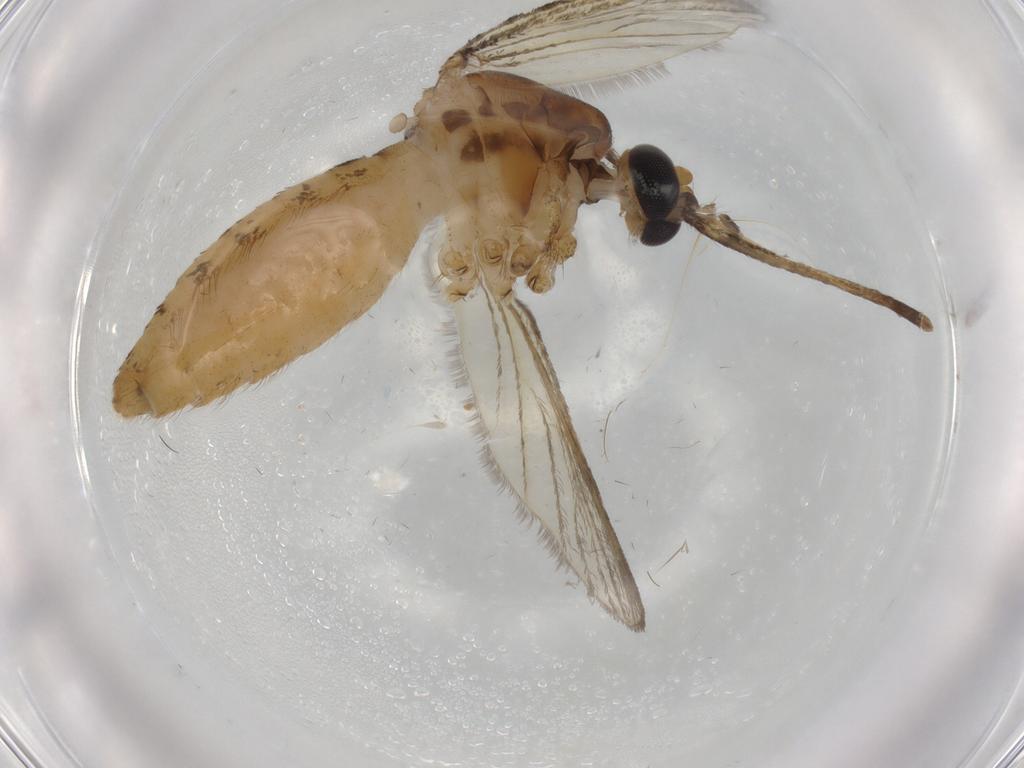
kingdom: Animalia
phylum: Arthropoda
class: Insecta
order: Diptera
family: Culicidae
